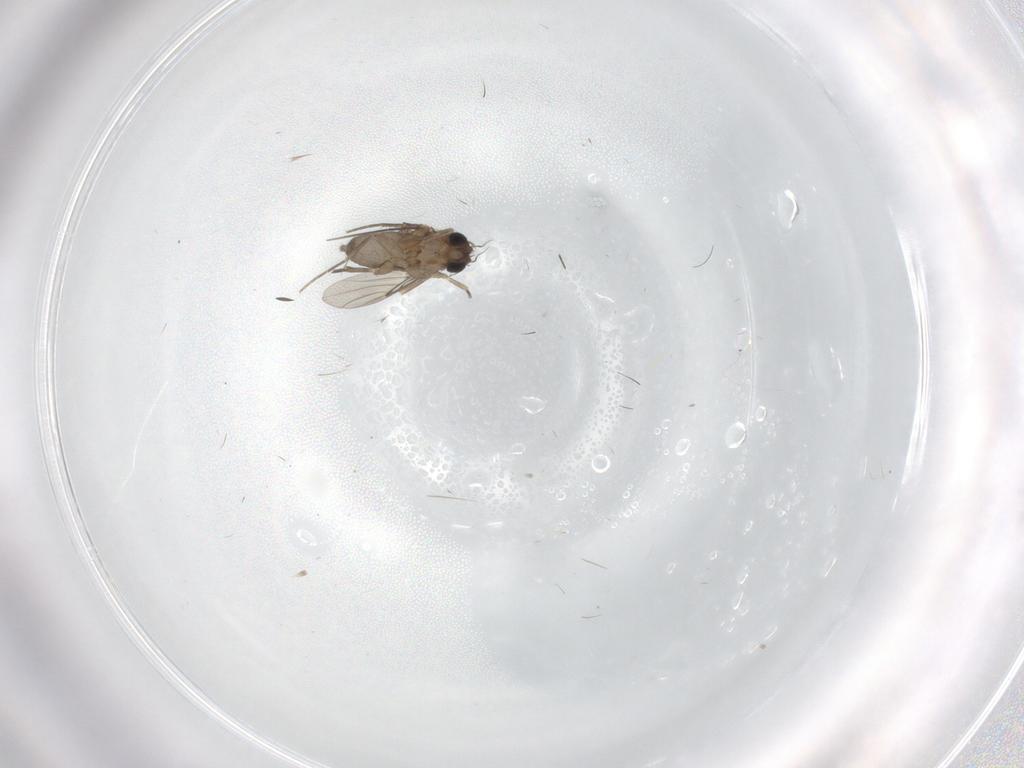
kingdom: Animalia
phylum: Arthropoda
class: Insecta
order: Diptera
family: Phoridae
